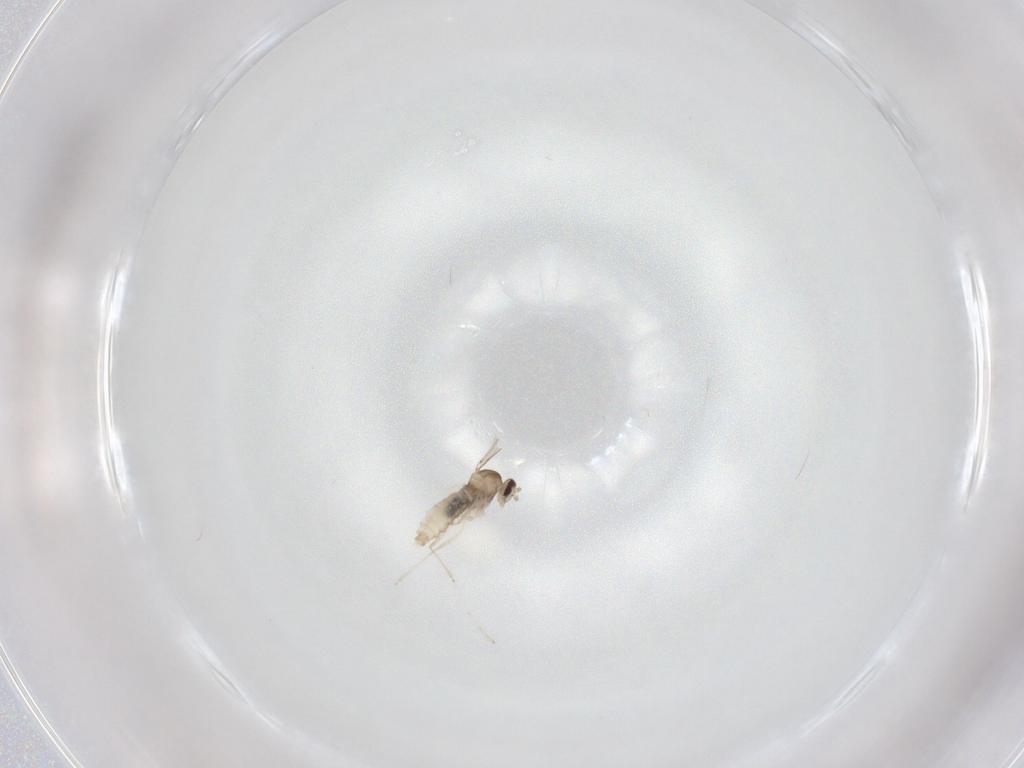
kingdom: Animalia
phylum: Arthropoda
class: Insecta
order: Diptera
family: Cecidomyiidae
